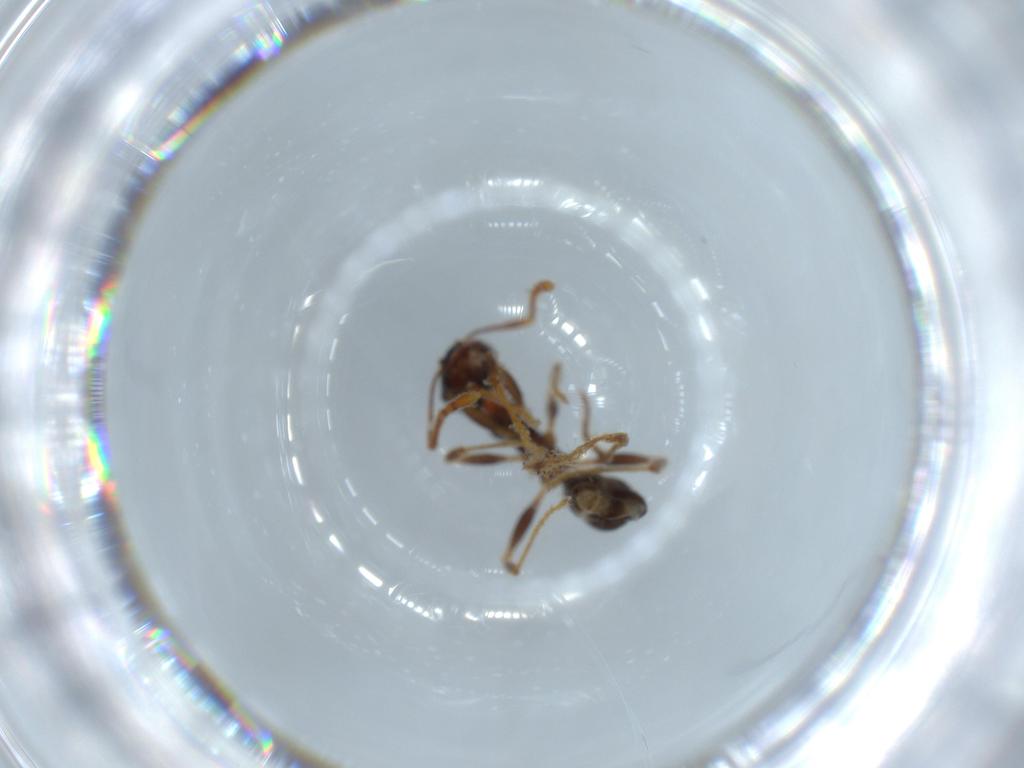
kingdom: Animalia
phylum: Arthropoda
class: Insecta
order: Hymenoptera
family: Formicidae
